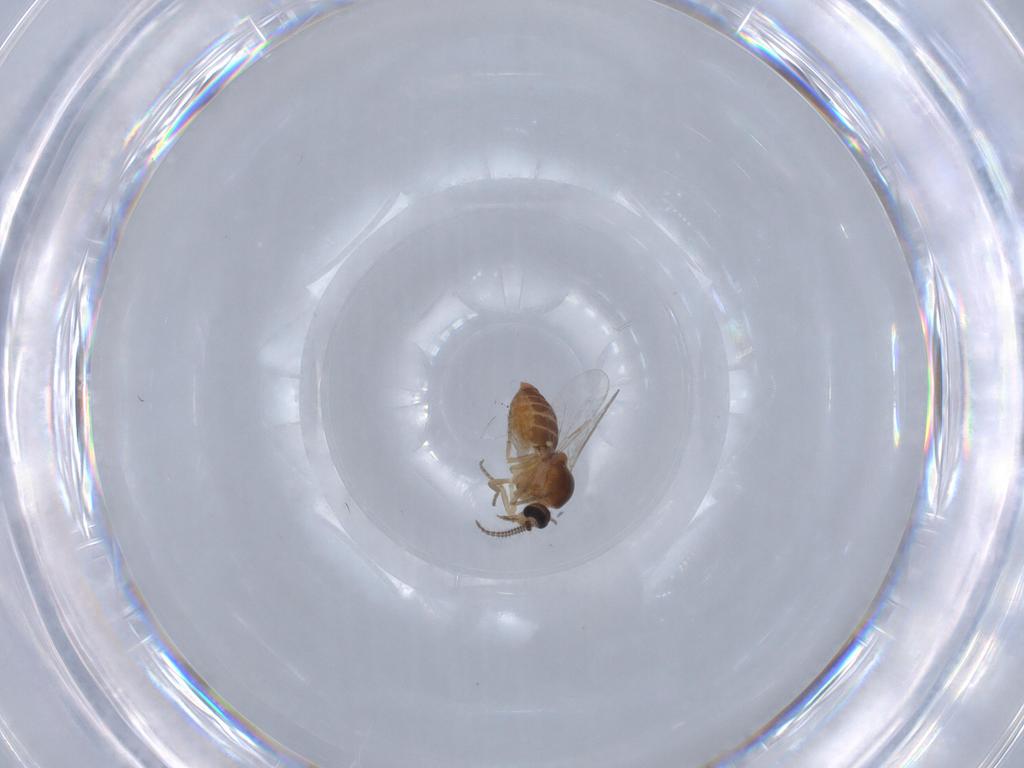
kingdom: Animalia
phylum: Arthropoda
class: Insecta
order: Diptera
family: Ceratopogonidae
